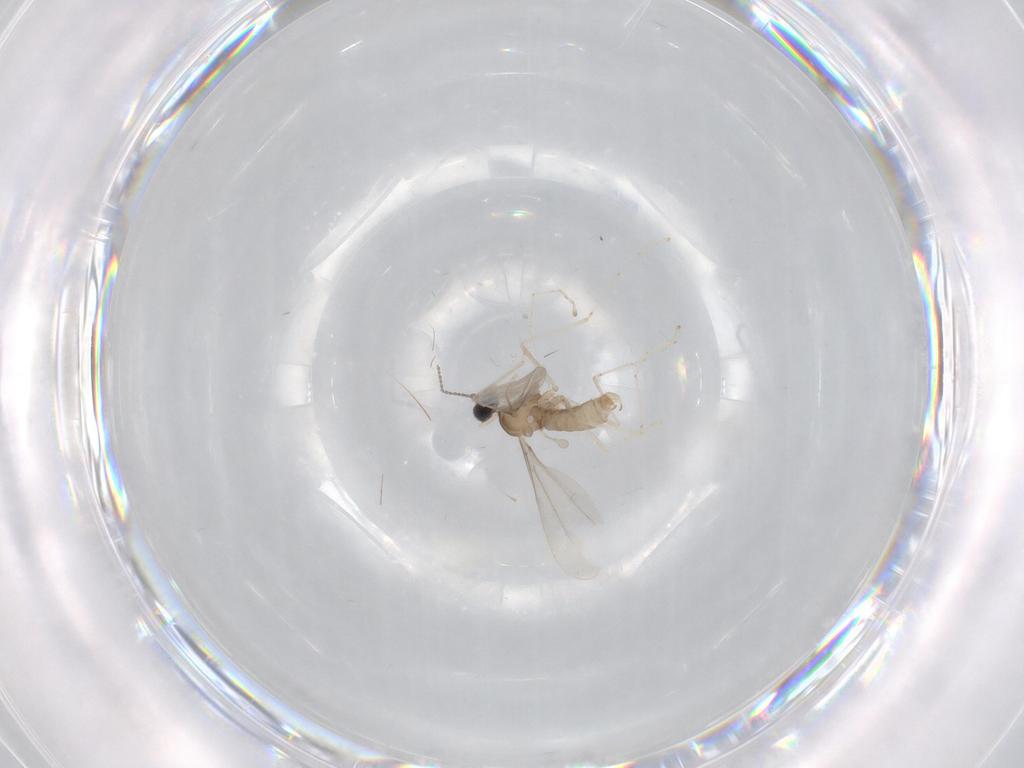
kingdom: Animalia
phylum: Arthropoda
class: Insecta
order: Diptera
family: Cecidomyiidae
